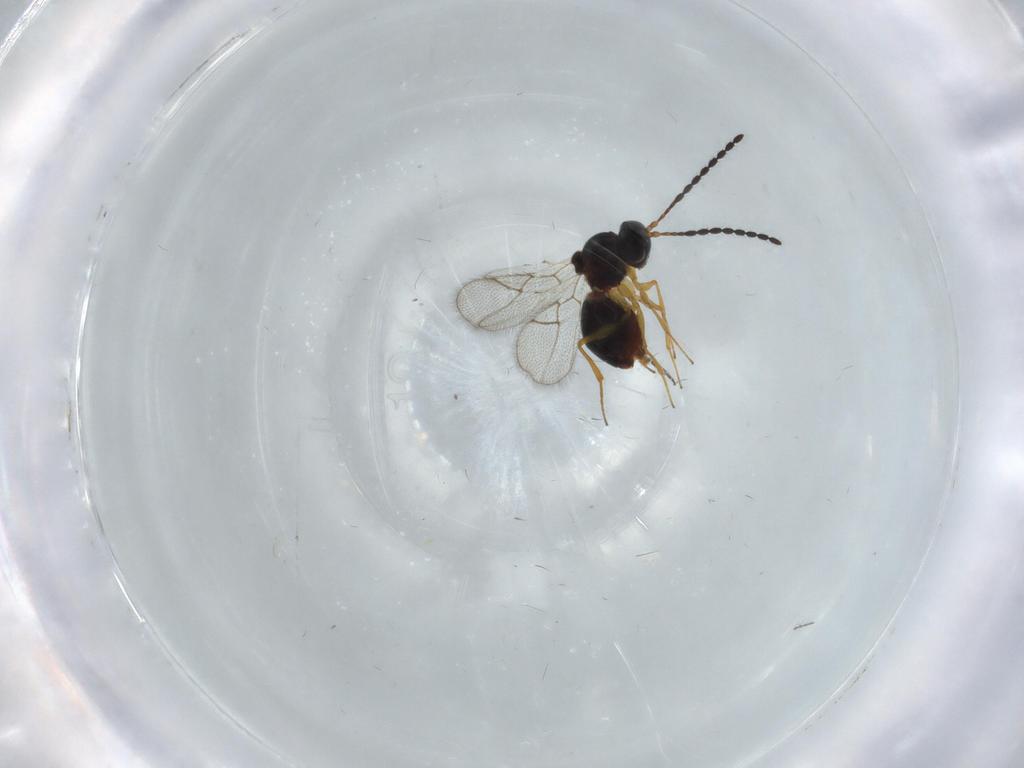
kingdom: Animalia
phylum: Arthropoda
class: Insecta
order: Hymenoptera
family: Figitidae
